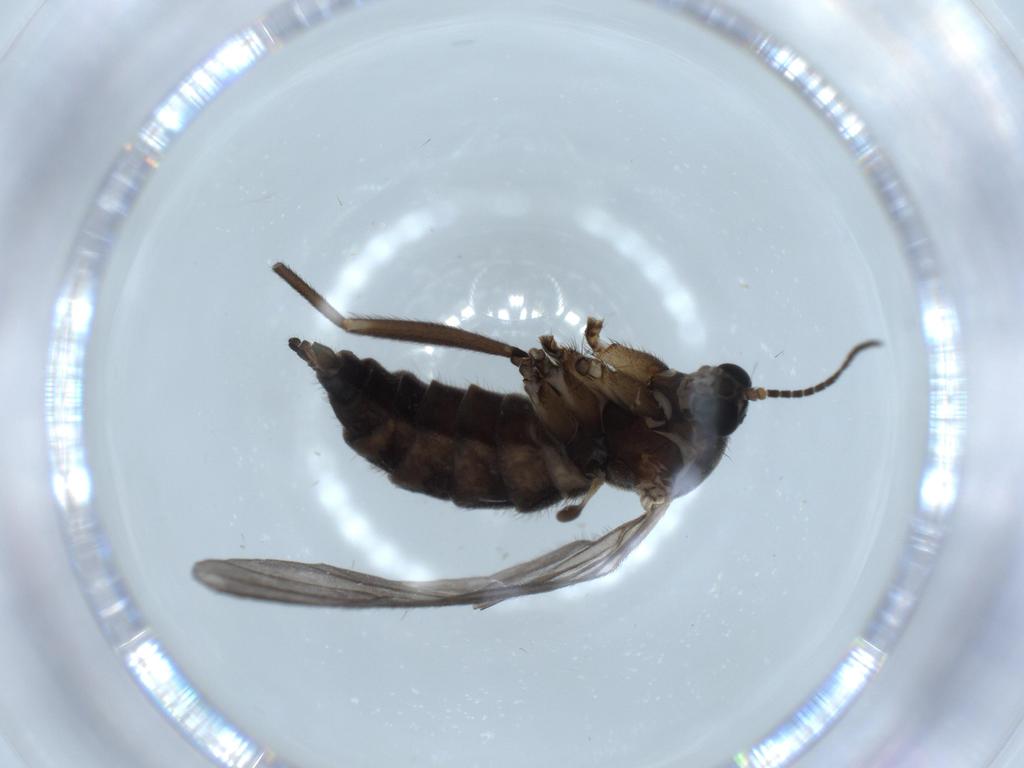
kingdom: Animalia
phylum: Arthropoda
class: Insecta
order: Diptera
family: Sciaridae
